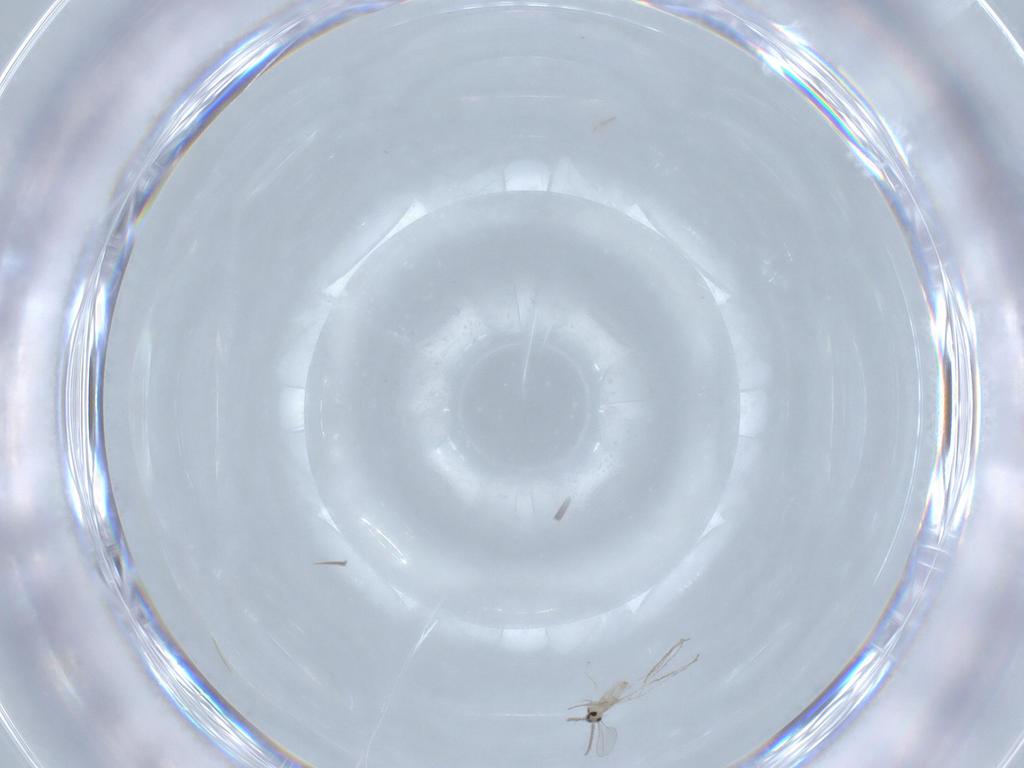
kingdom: Animalia
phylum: Arthropoda
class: Insecta
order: Diptera
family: Cecidomyiidae
